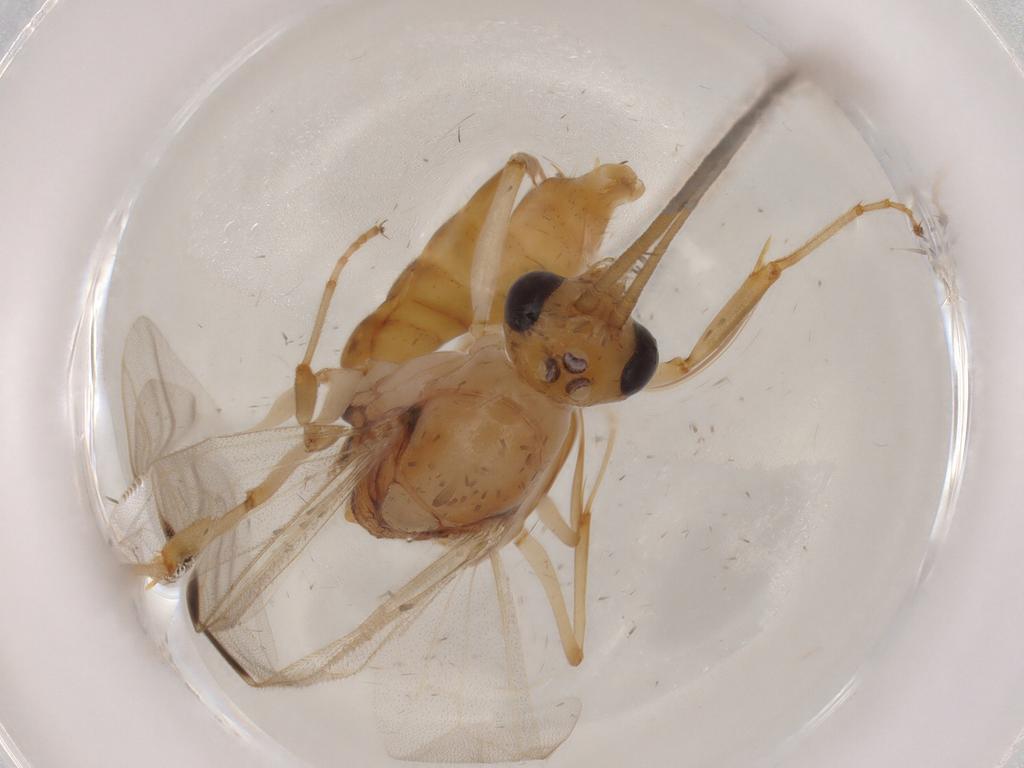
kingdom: Animalia
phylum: Arthropoda
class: Insecta
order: Hymenoptera
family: Formicidae
